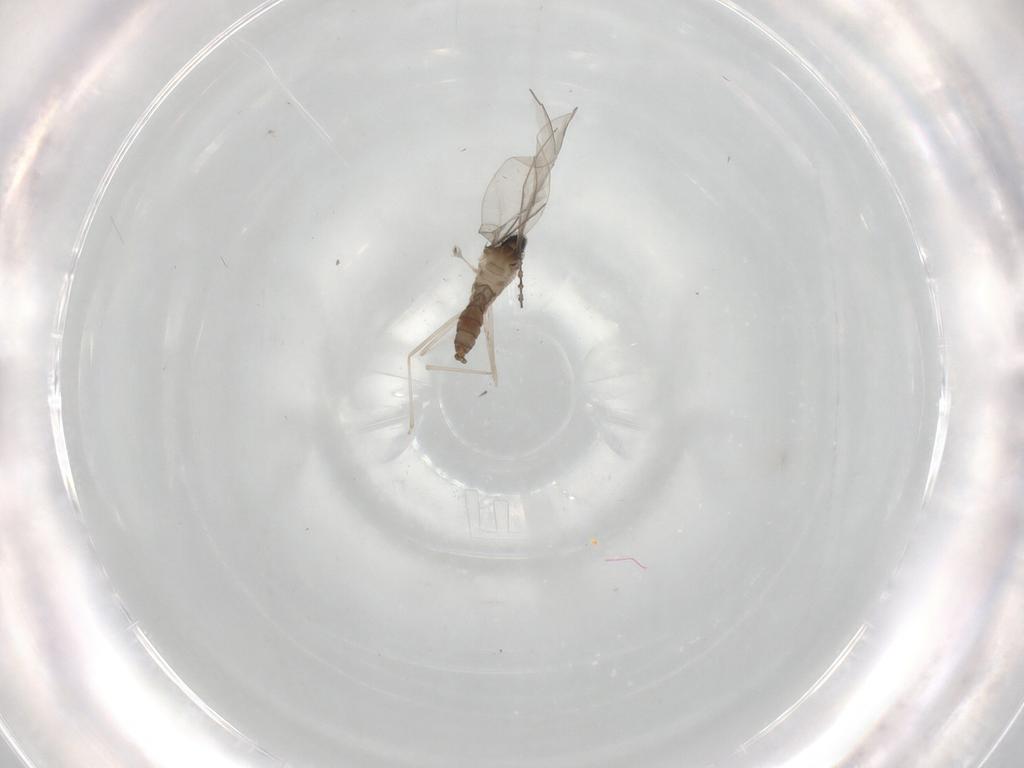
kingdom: Animalia
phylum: Arthropoda
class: Insecta
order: Diptera
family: Cecidomyiidae
